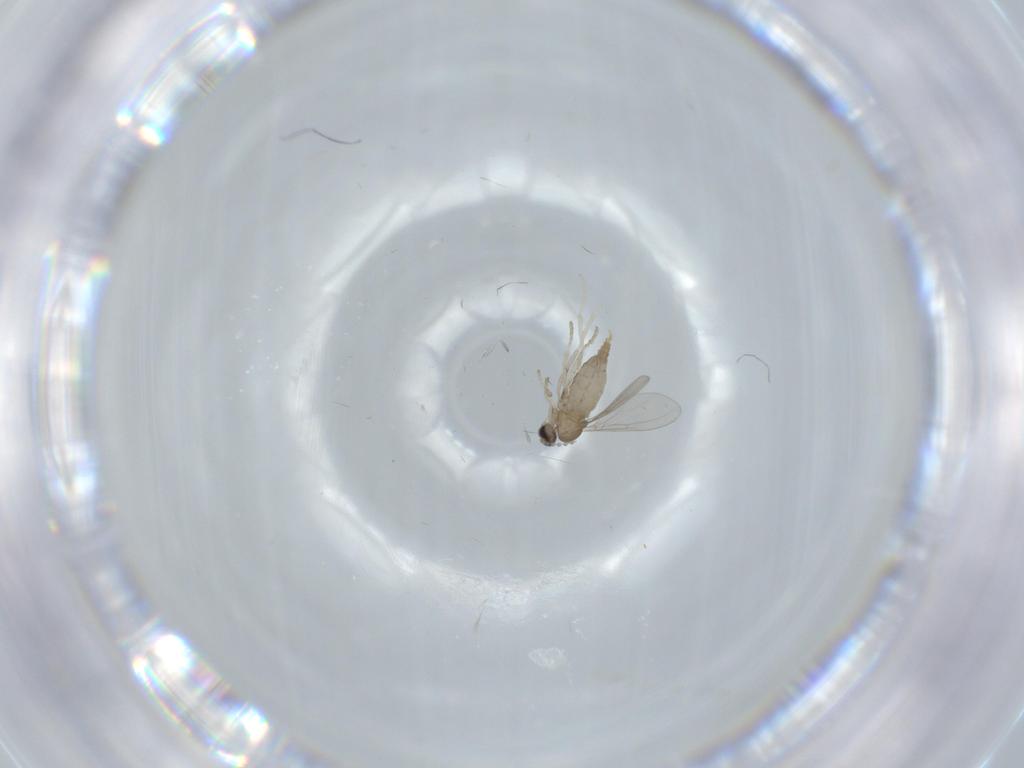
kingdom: Animalia
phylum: Arthropoda
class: Insecta
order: Diptera
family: Cecidomyiidae
